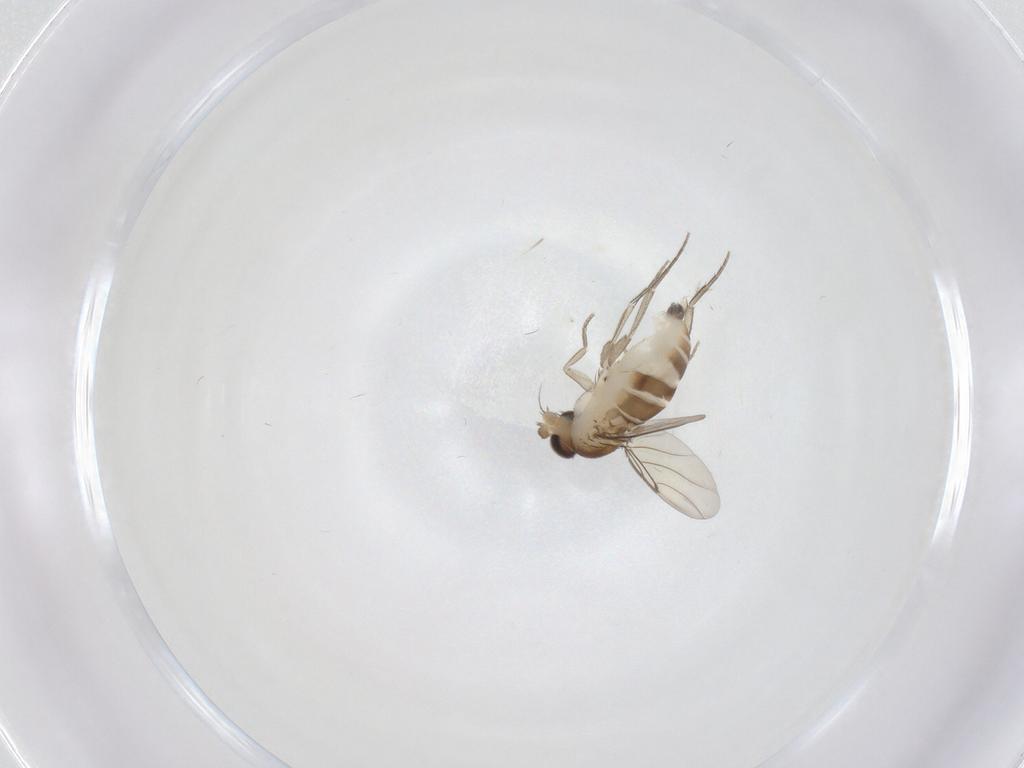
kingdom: Animalia
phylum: Arthropoda
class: Insecta
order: Diptera
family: Phoridae
